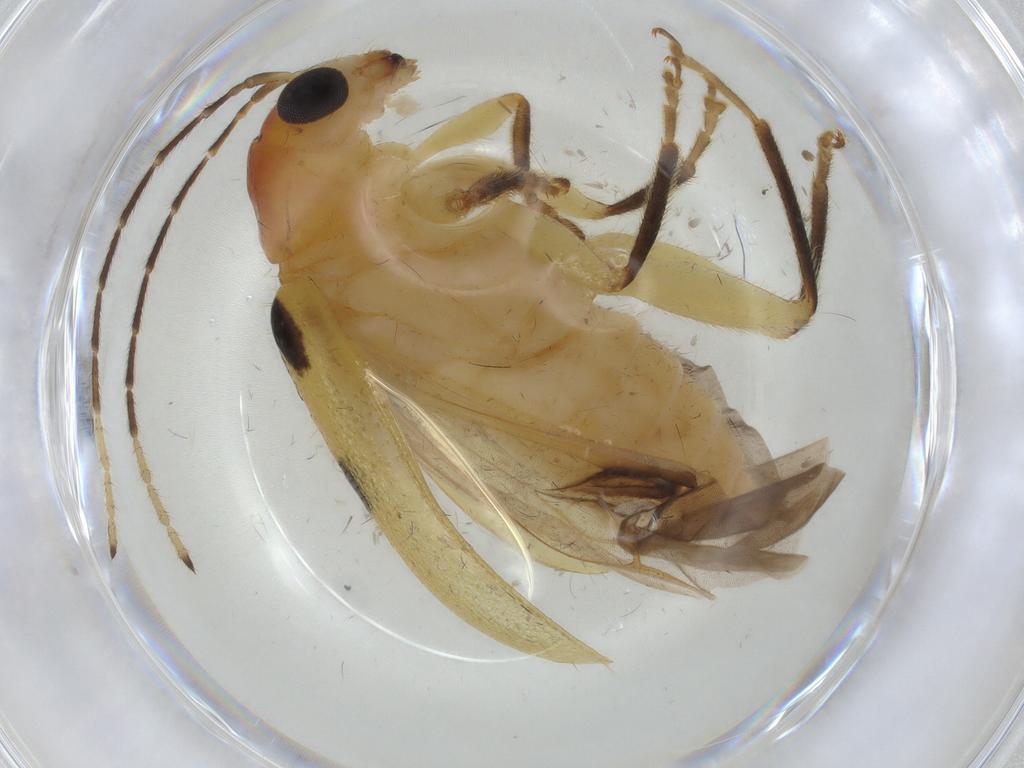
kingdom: Animalia
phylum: Arthropoda
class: Insecta
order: Coleoptera
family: Chrysomelidae
